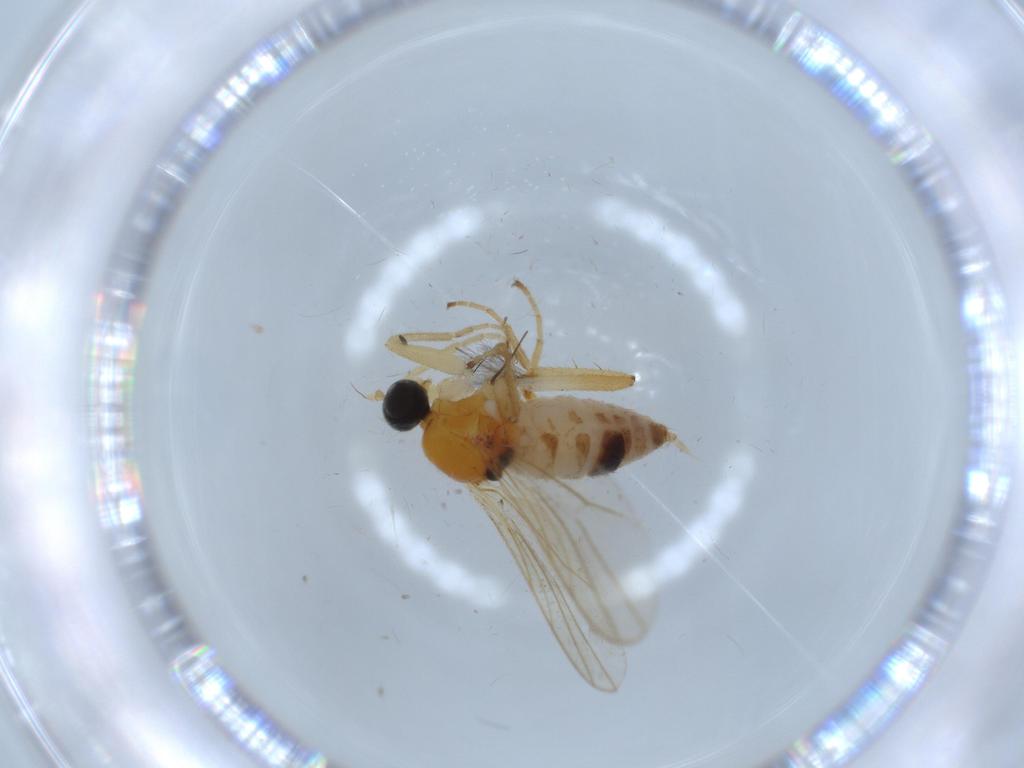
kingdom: Animalia
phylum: Arthropoda
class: Insecta
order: Diptera
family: Hybotidae
